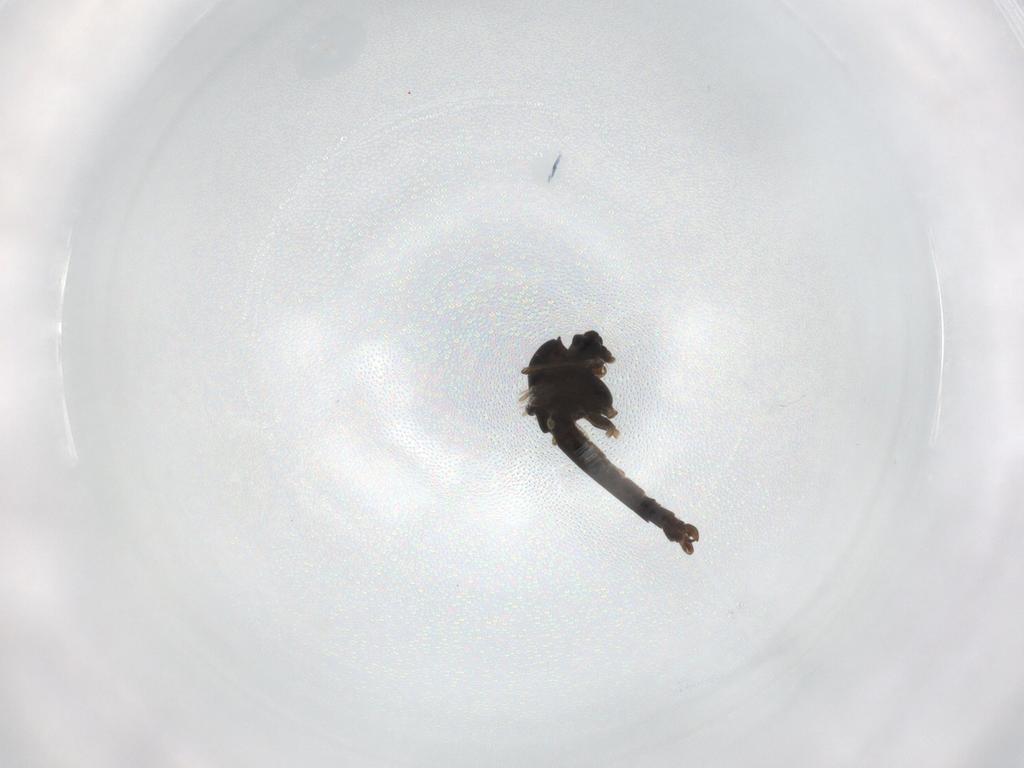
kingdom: Animalia
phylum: Arthropoda
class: Insecta
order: Diptera
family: Chironomidae
